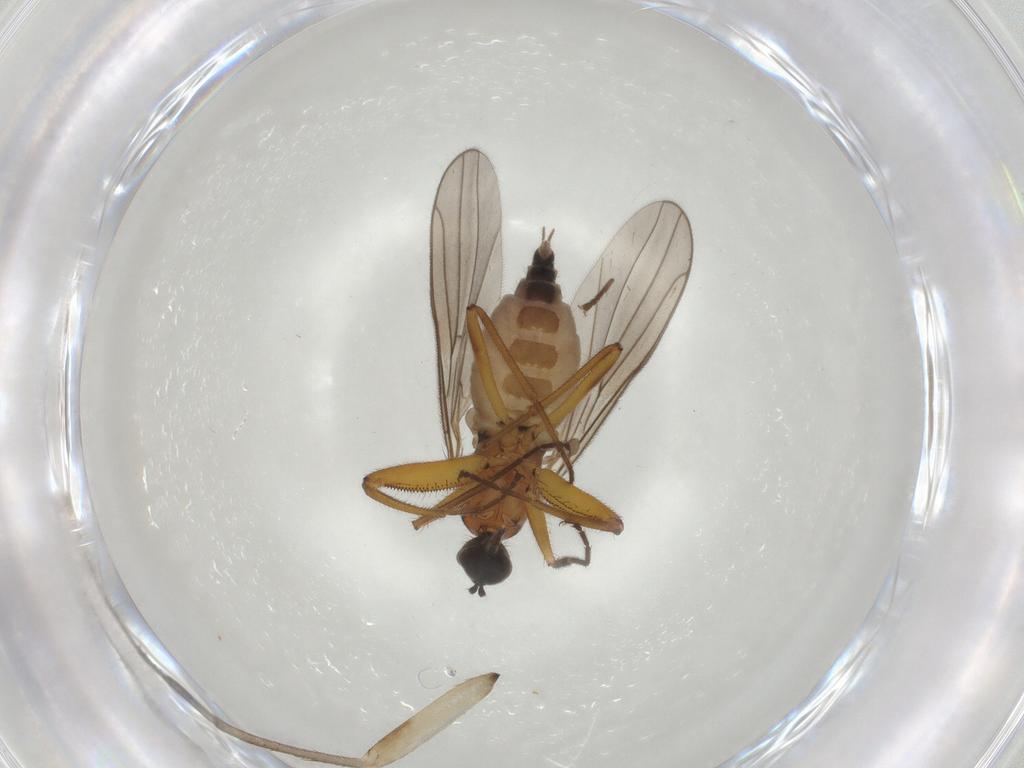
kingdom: Animalia
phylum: Arthropoda
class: Insecta
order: Diptera
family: Hybotidae
